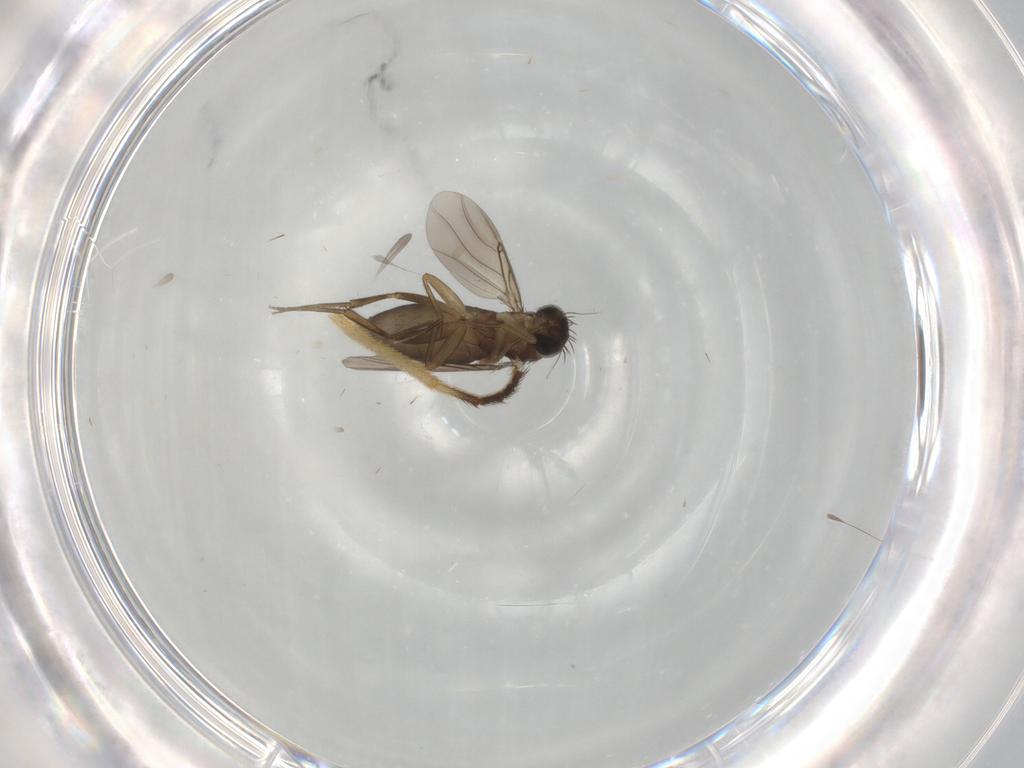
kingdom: Animalia
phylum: Arthropoda
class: Insecta
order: Diptera
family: Phoridae
